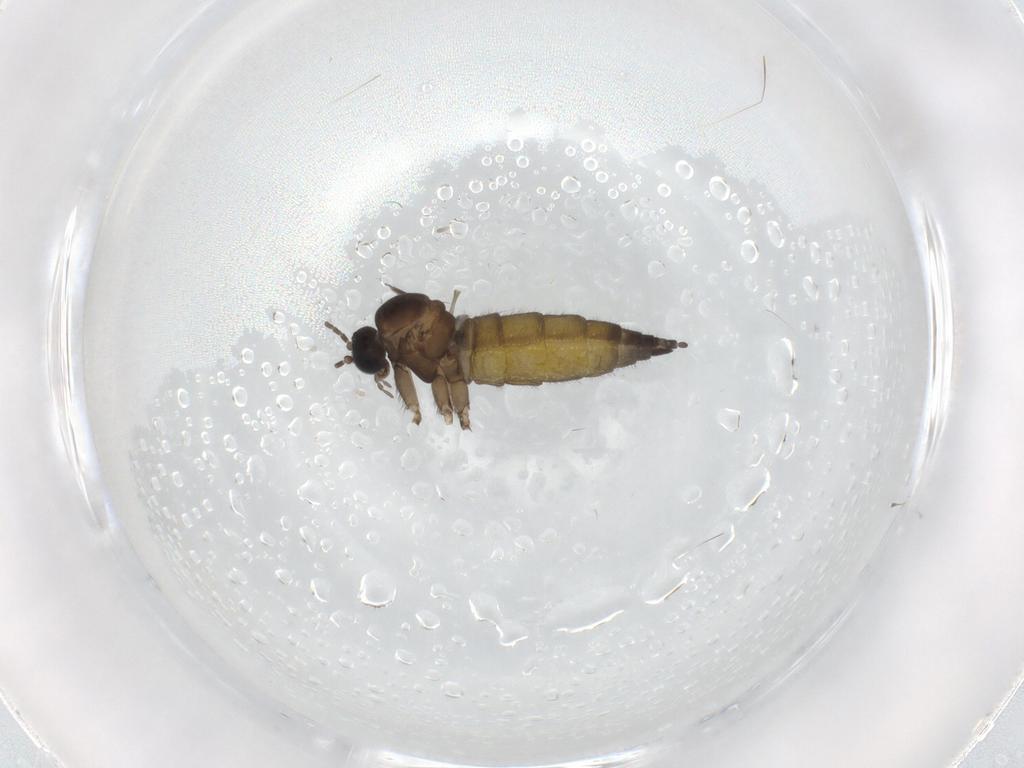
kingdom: Animalia
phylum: Arthropoda
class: Insecta
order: Diptera
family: Sciaridae
